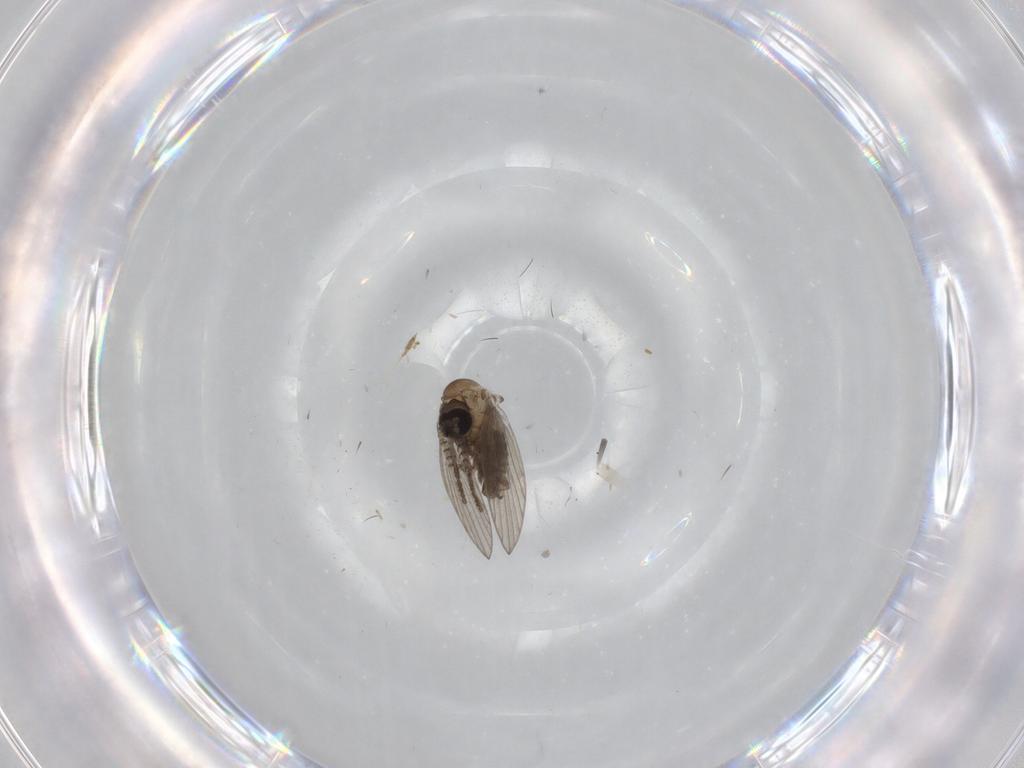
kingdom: Animalia
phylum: Arthropoda
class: Insecta
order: Diptera
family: Psychodidae
